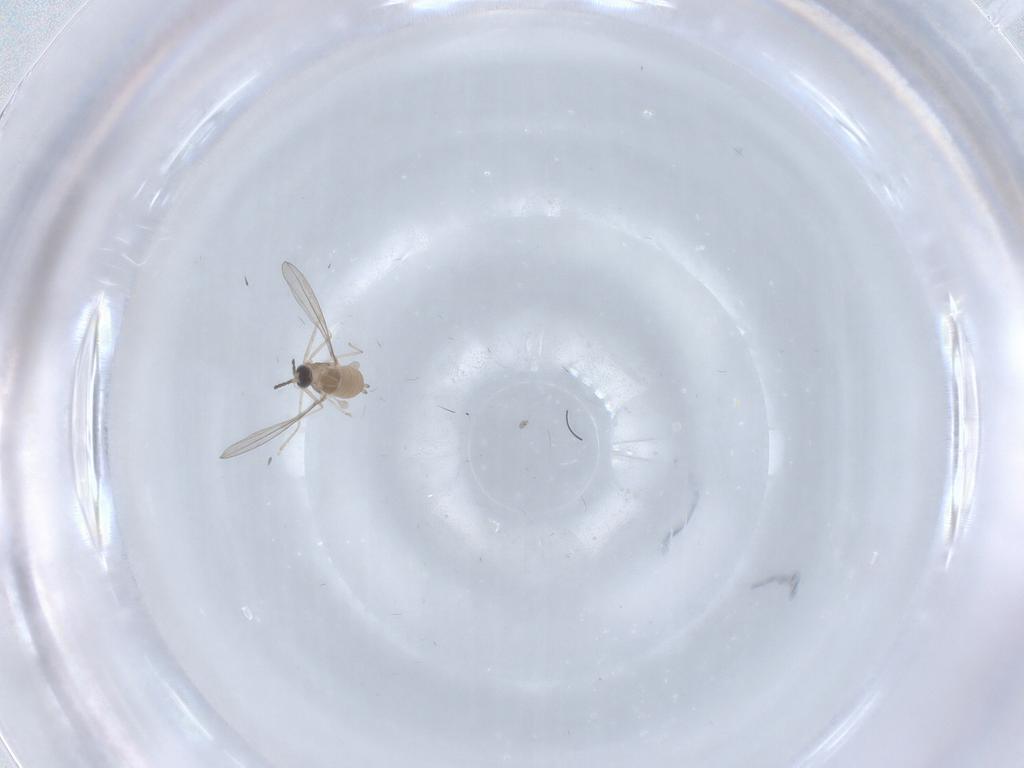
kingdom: Animalia
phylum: Arthropoda
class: Insecta
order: Diptera
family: Cecidomyiidae
